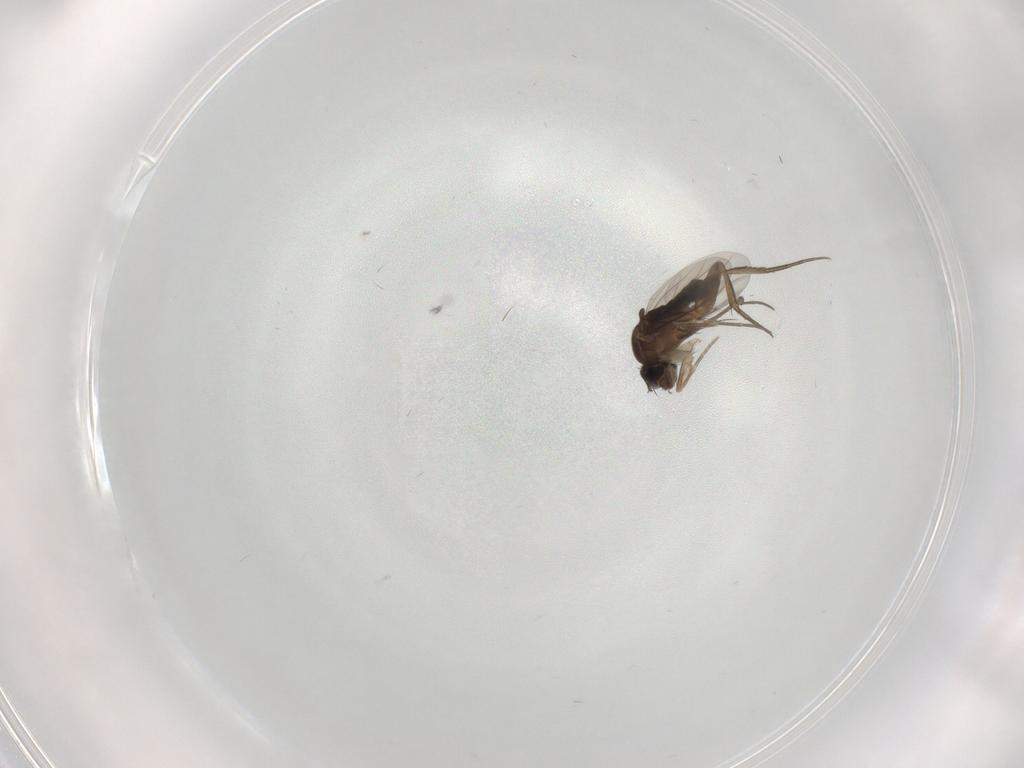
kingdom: Animalia
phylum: Arthropoda
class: Insecta
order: Diptera
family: Phoridae
